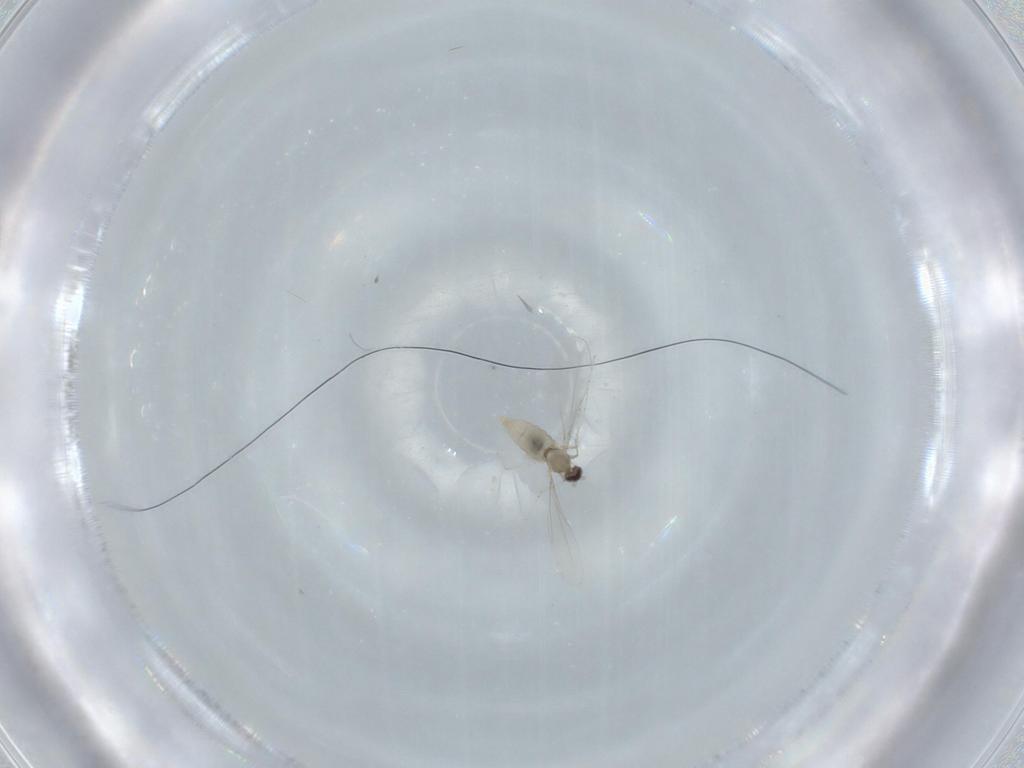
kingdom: Animalia
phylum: Arthropoda
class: Insecta
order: Diptera
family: Cecidomyiidae
